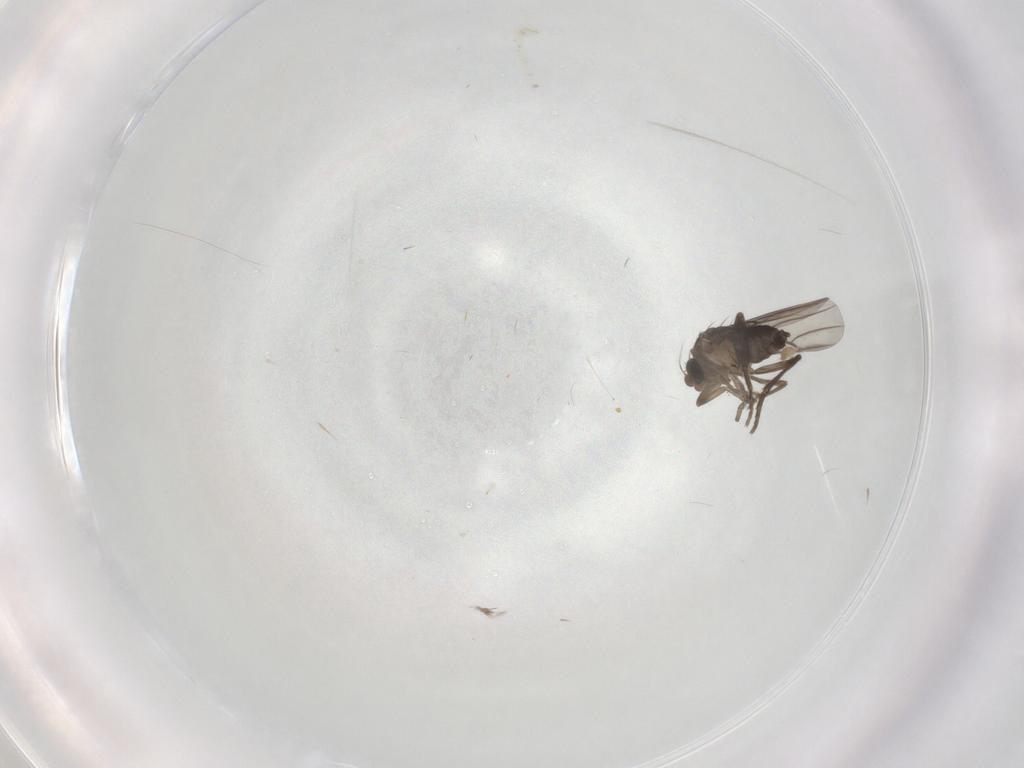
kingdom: Animalia
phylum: Arthropoda
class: Insecta
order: Diptera
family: Phoridae
